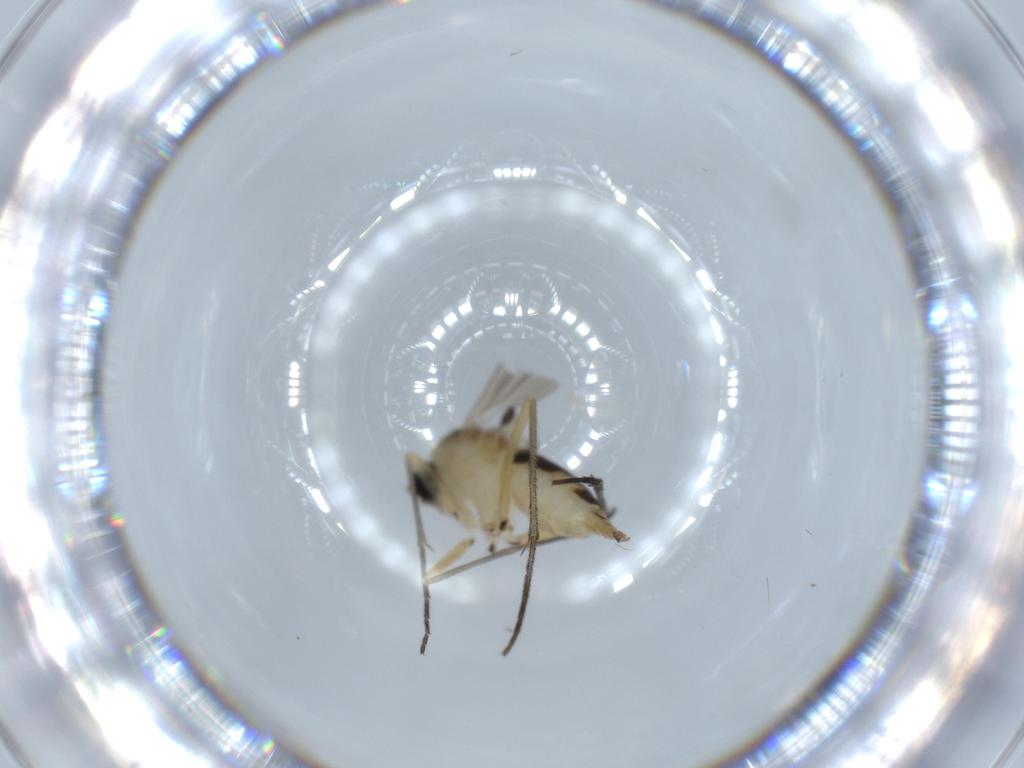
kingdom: Animalia
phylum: Arthropoda
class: Insecta
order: Diptera
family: Sciaridae
